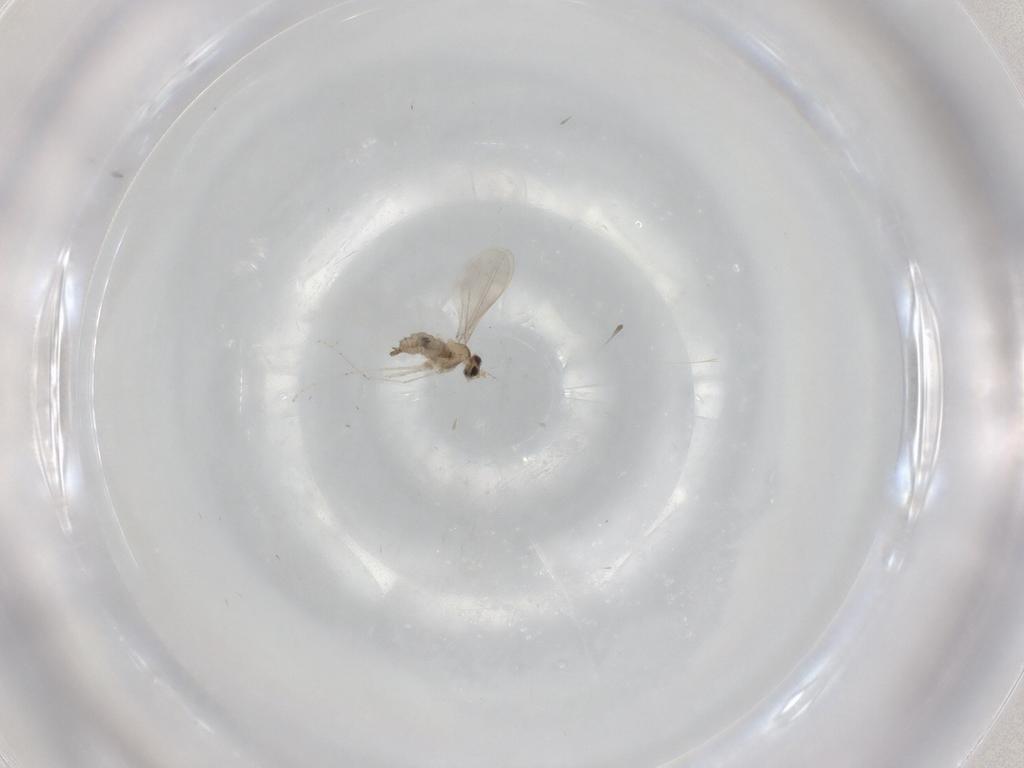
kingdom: Animalia
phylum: Arthropoda
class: Insecta
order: Diptera
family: Cecidomyiidae
